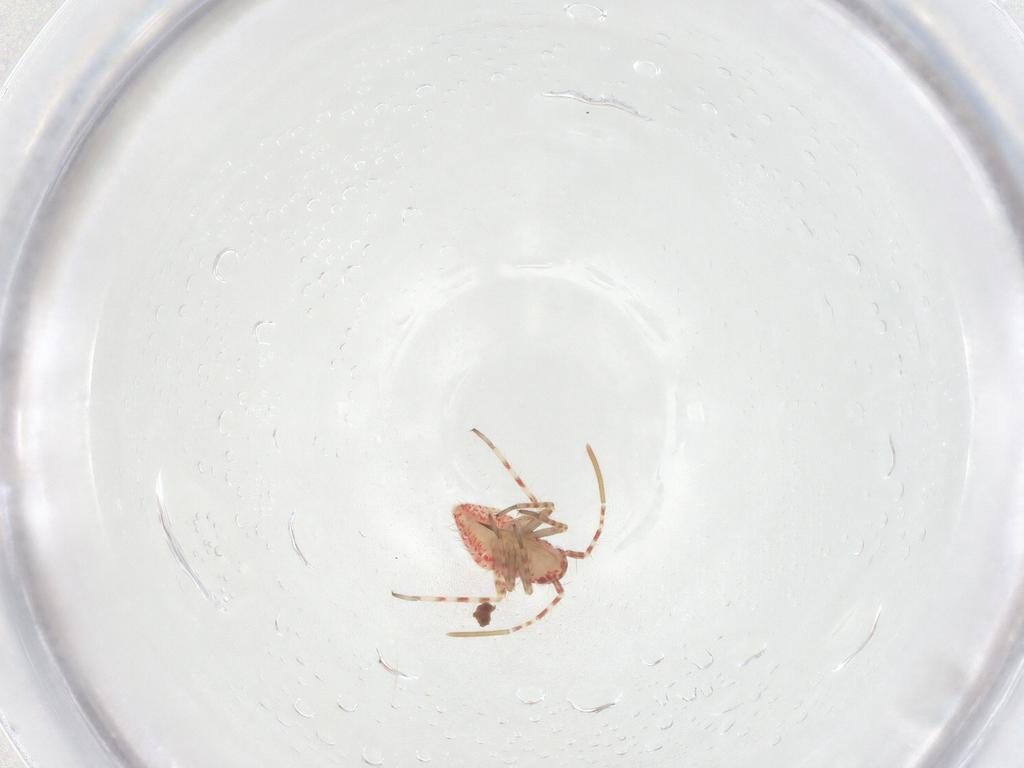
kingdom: Animalia
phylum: Arthropoda
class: Insecta
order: Hemiptera
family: Miridae
